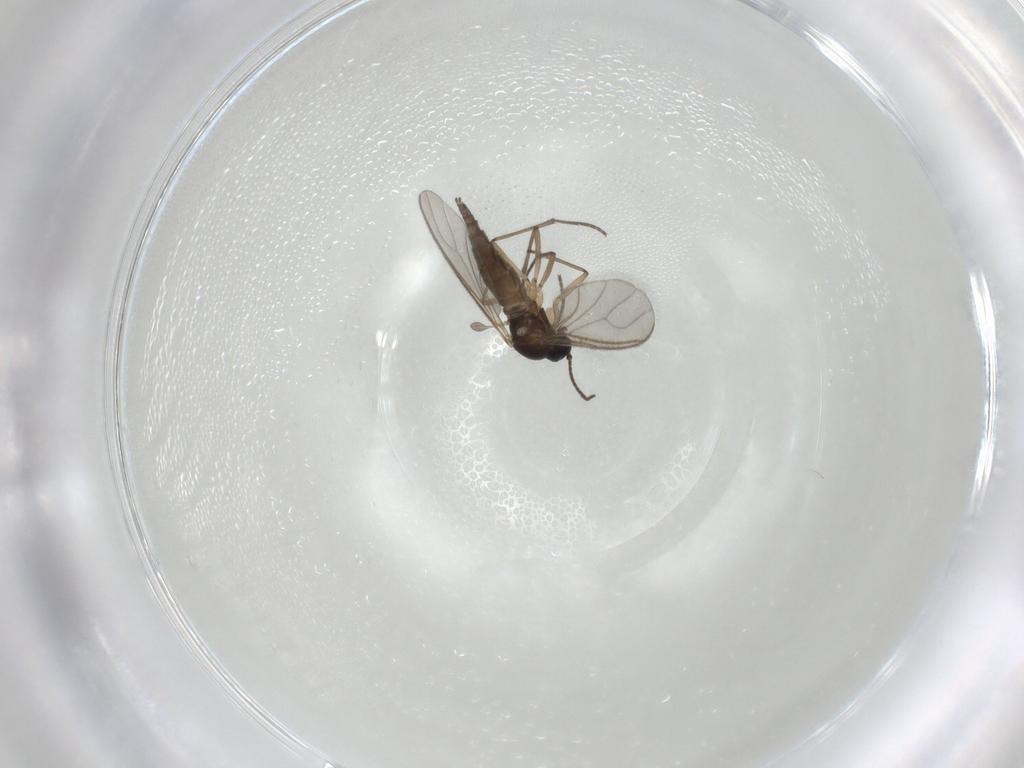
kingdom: Animalia
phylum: Arthropoda
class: Insecta
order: Diptera
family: Sciaridae
